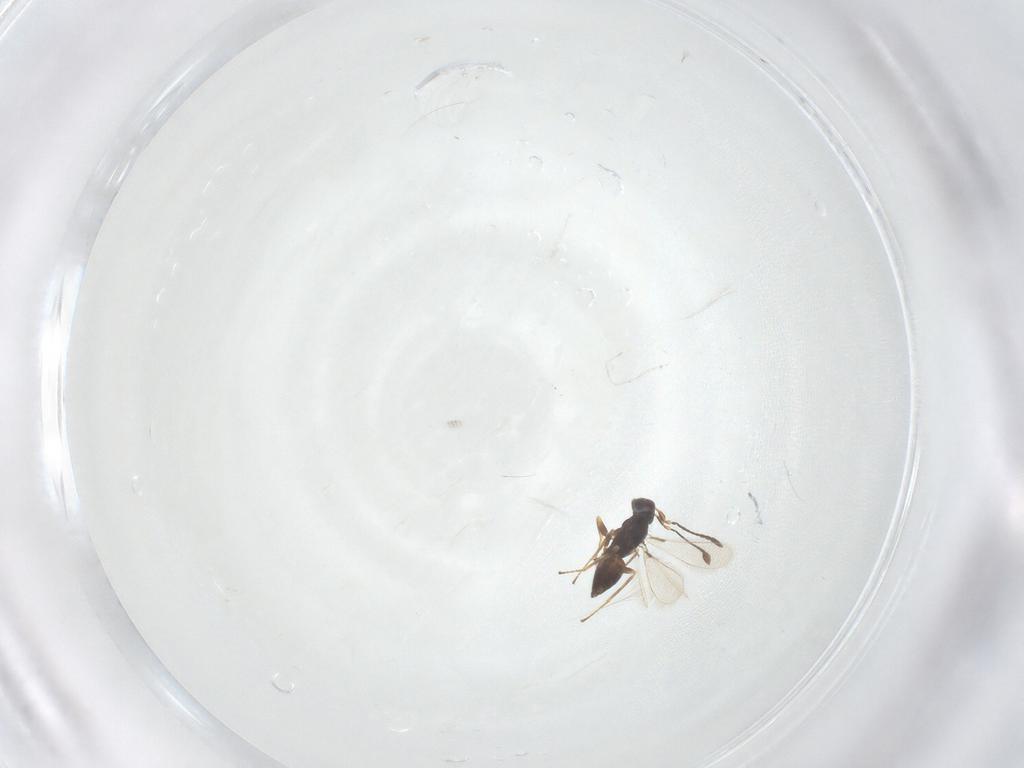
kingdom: Animalia
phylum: Arthropoda
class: Insecta
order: Hymenoptera
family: Mymaridae
